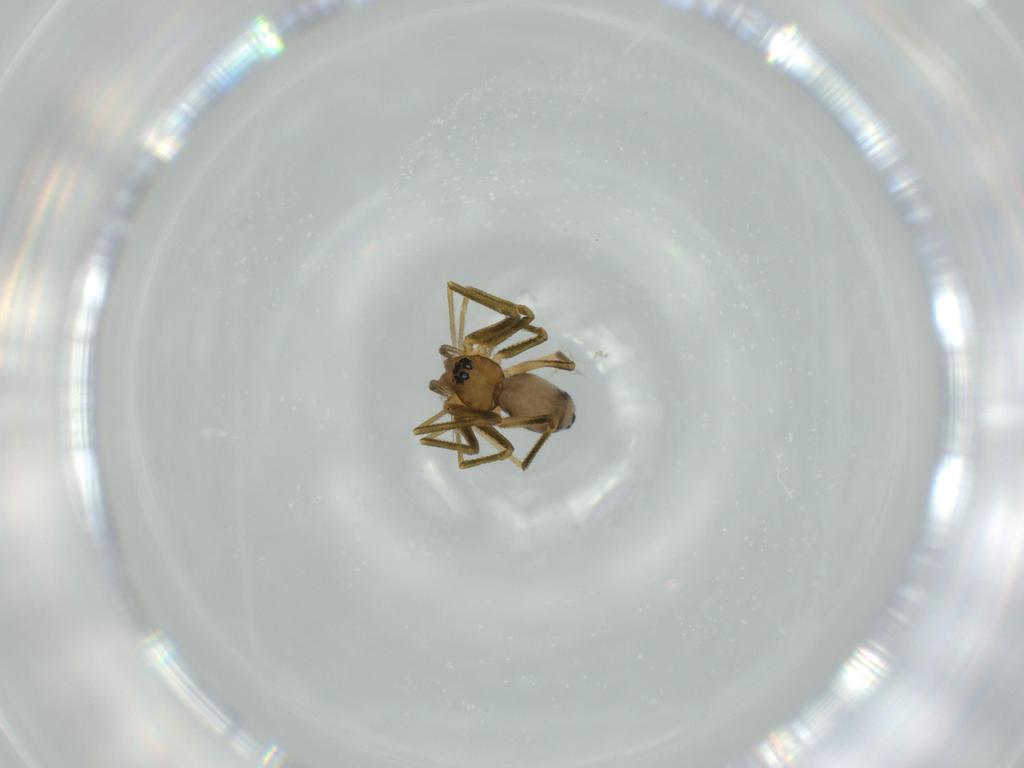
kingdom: Animalia
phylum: Arthropoda
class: Arachnida
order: Araneae
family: Linyphiidae
